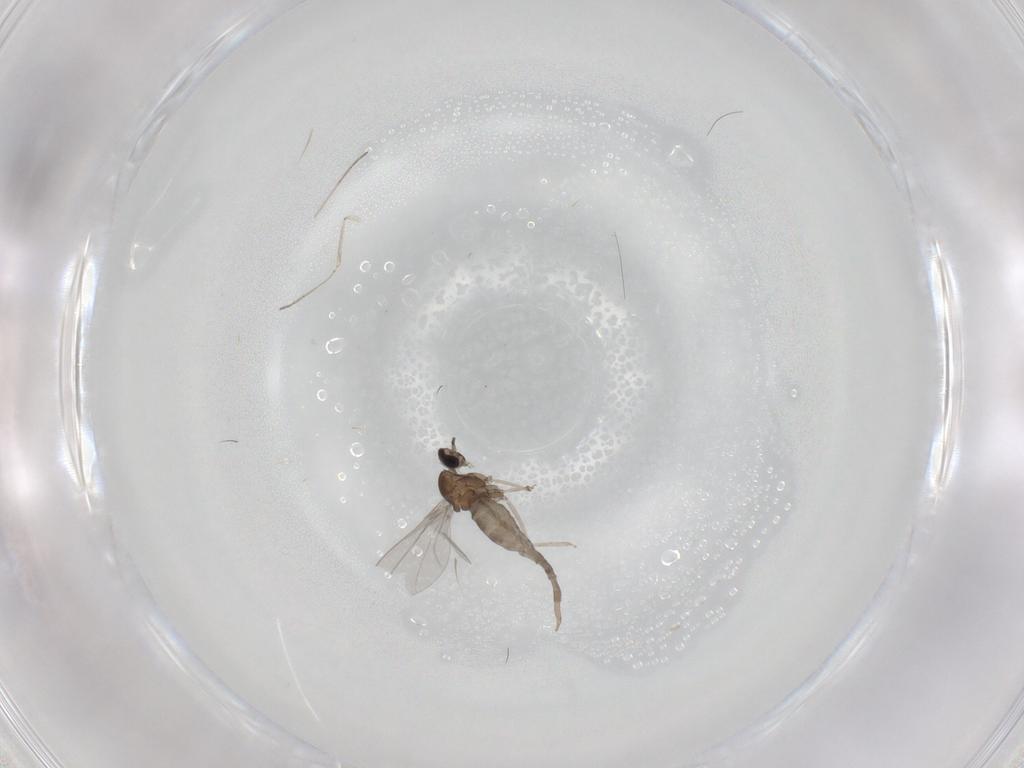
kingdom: Animalia
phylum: Arthropoda
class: Insecta
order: Diptera
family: Cecidomyiidae
